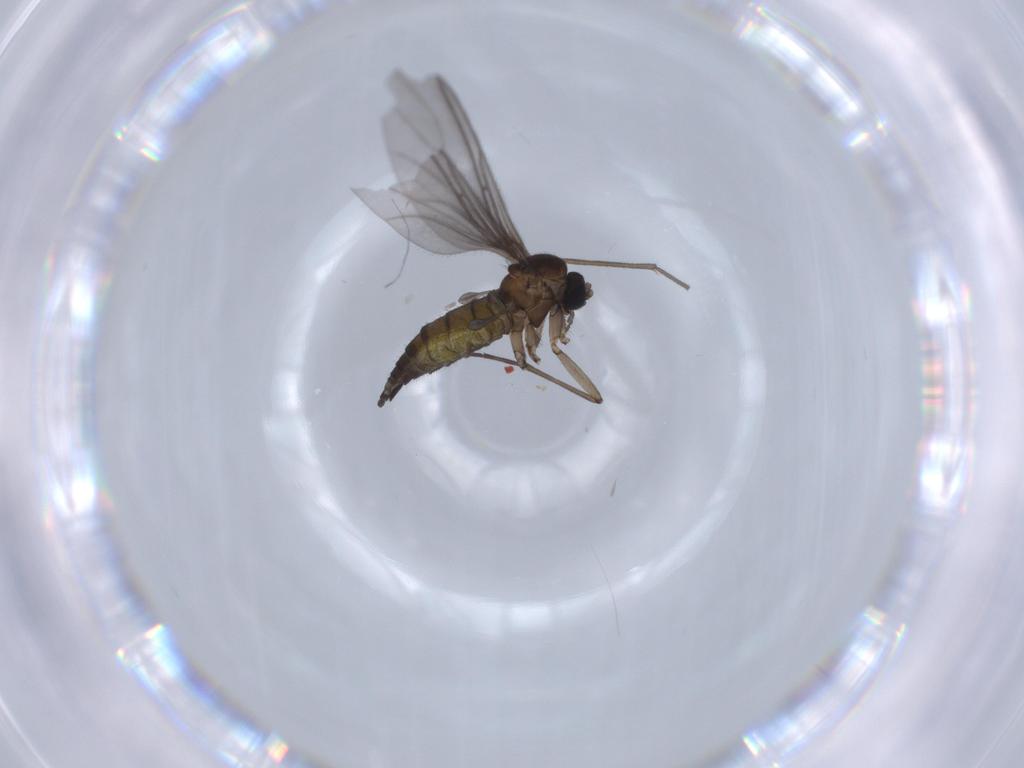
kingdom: Animalia
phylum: Arthropoda
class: Insecta
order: Diptera
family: Sciaridae
